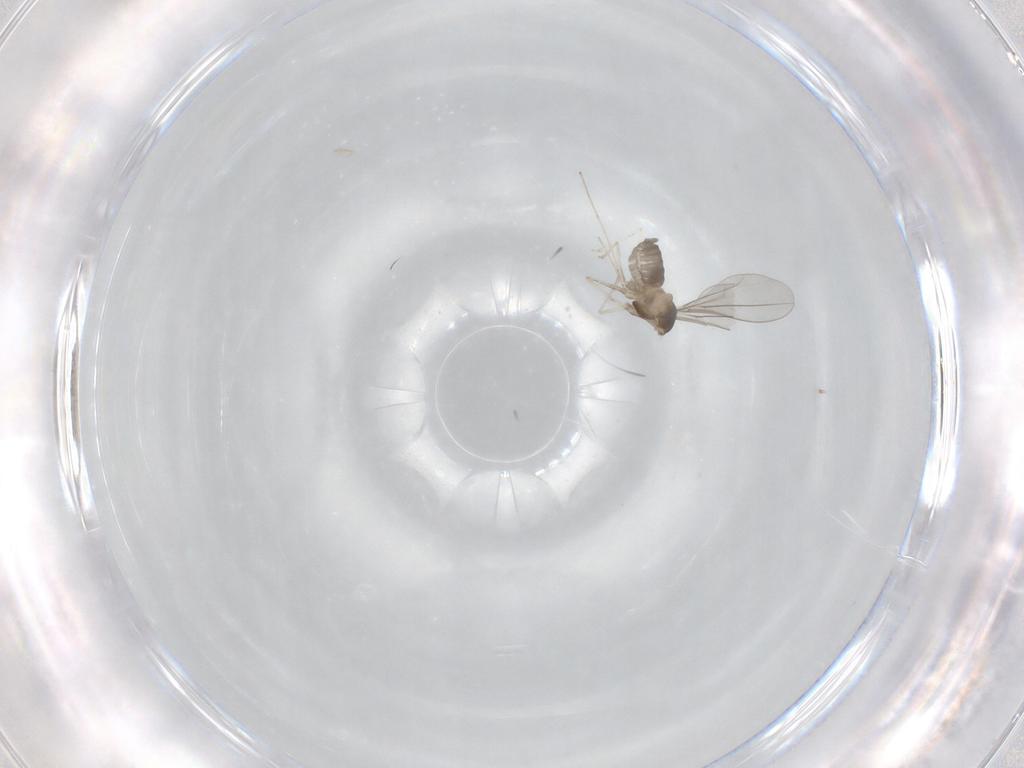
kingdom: Animalia
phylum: Arthropoda
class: Insecta
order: Diptera
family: Cecidomyiidae
